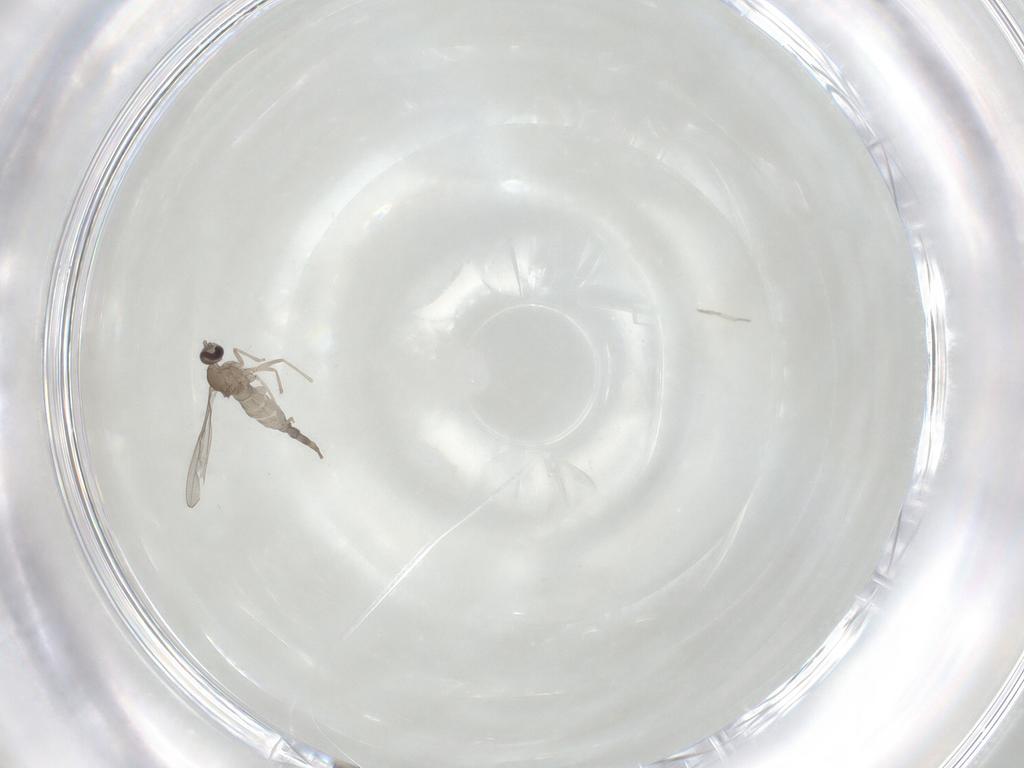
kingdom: Animalia
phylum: Arthropoda
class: Insecta
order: Diptera
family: Cecidomyiidae
